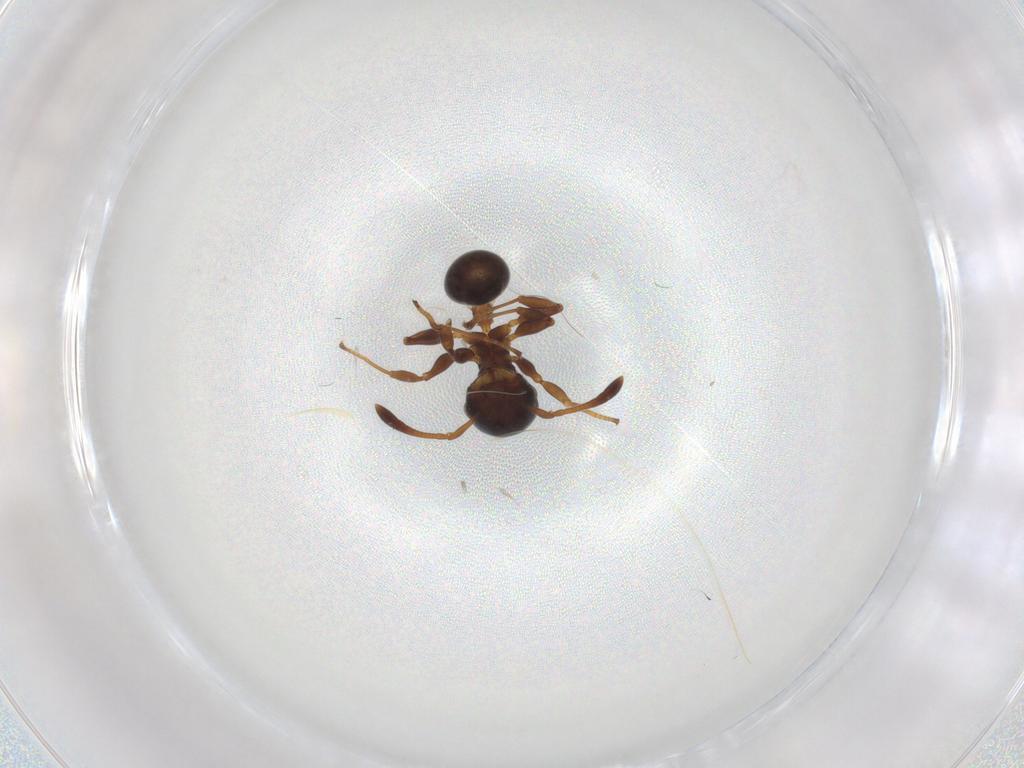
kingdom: Animalia
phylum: Arthropoda
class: Insecta
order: Hymenoptera
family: Formicidae
